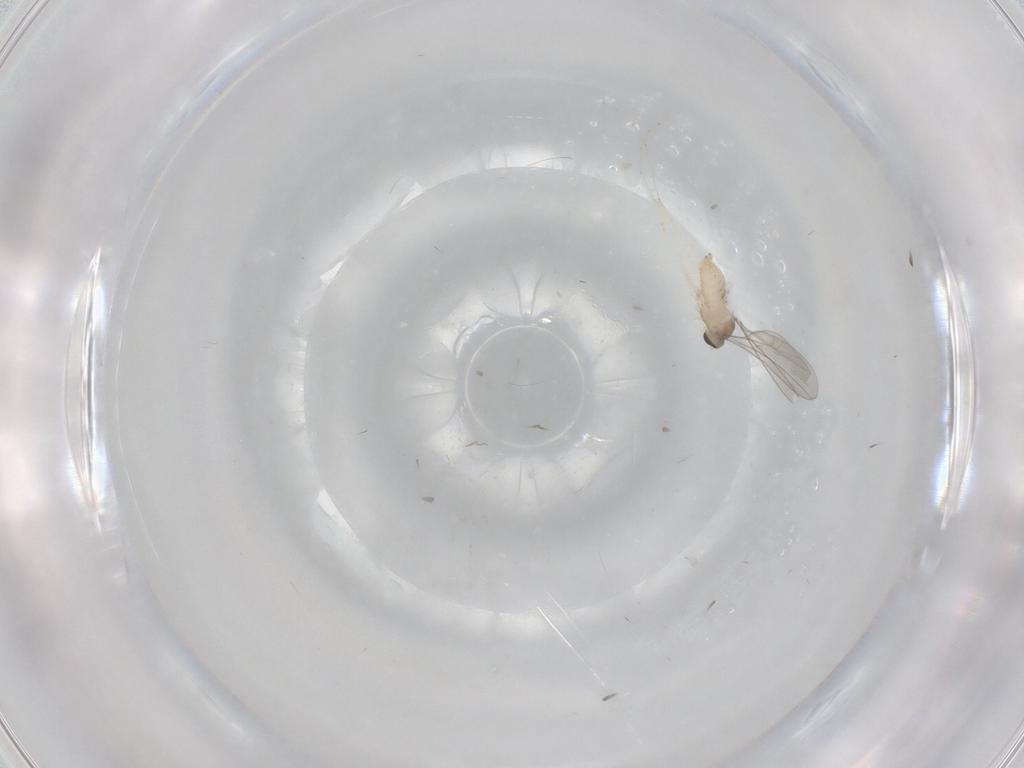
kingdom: Animalia
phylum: Arthropoda
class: Insecta
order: Diptera
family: Cecidomyiidae
